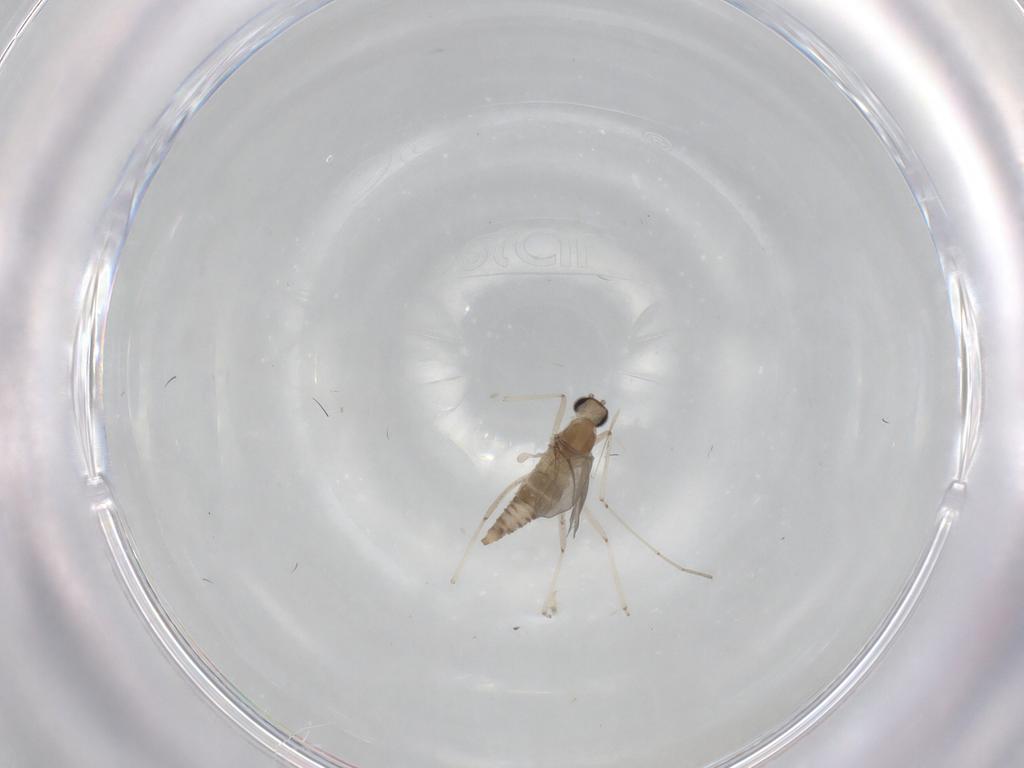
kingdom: Animalia
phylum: Arthropoda
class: Insecta
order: Diptera
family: Cecidomyiidae
